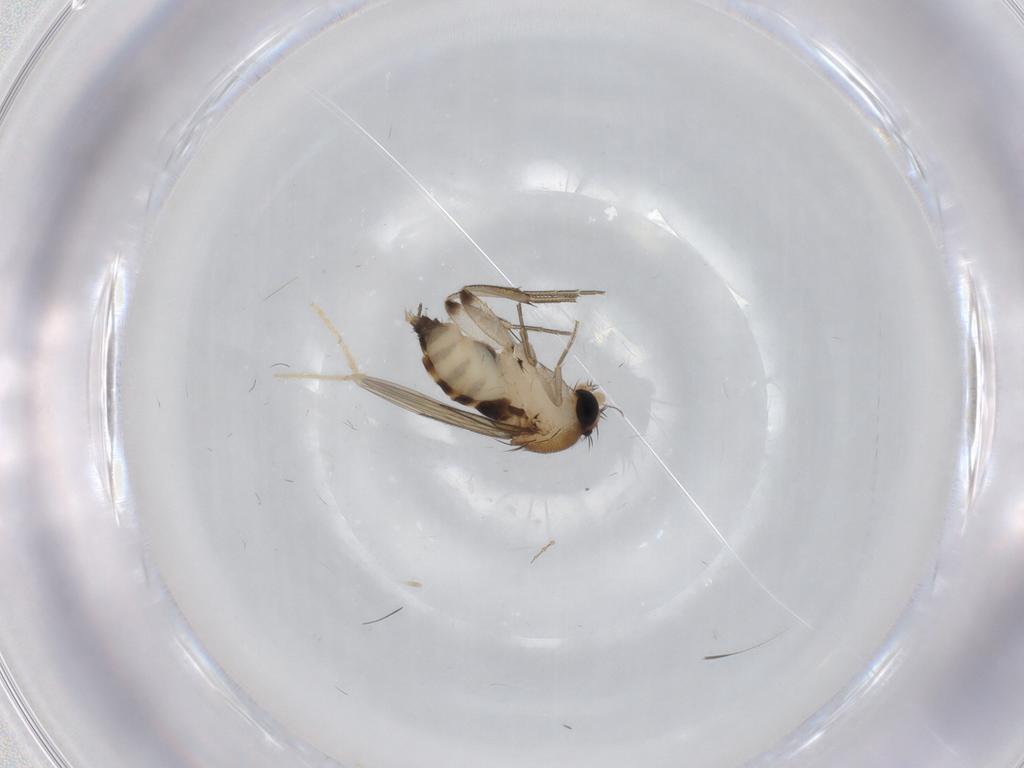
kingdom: Animalia
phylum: Arthropoda
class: Insecta
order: Diptera
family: Phoridae
